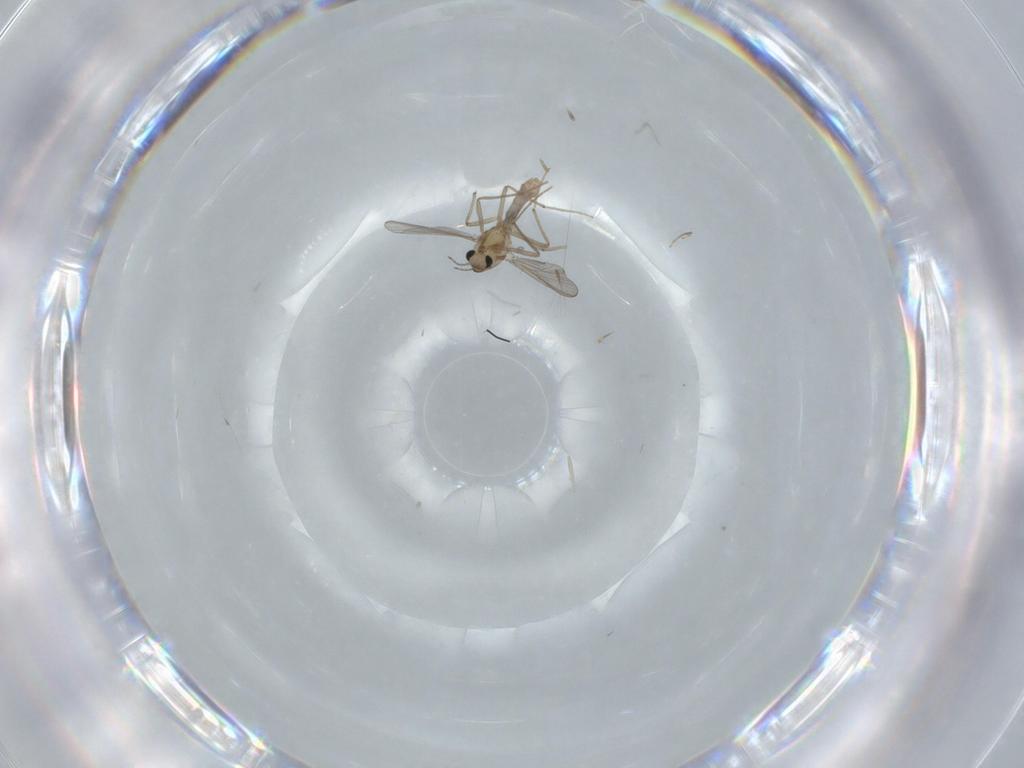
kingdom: Animalia
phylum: Arthropoda
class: Insecta
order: Diptera
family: Chironomidae
